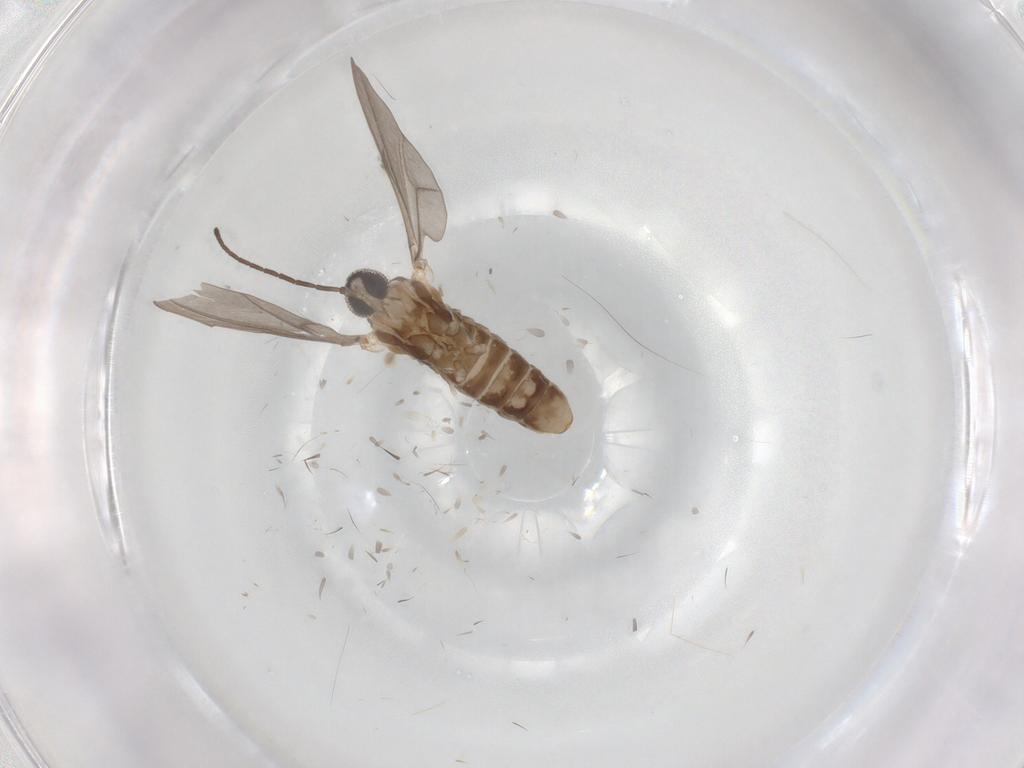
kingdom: Animalia
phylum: Arthropoda
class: Insecta
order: Diptera
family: Cecidomyiidae
